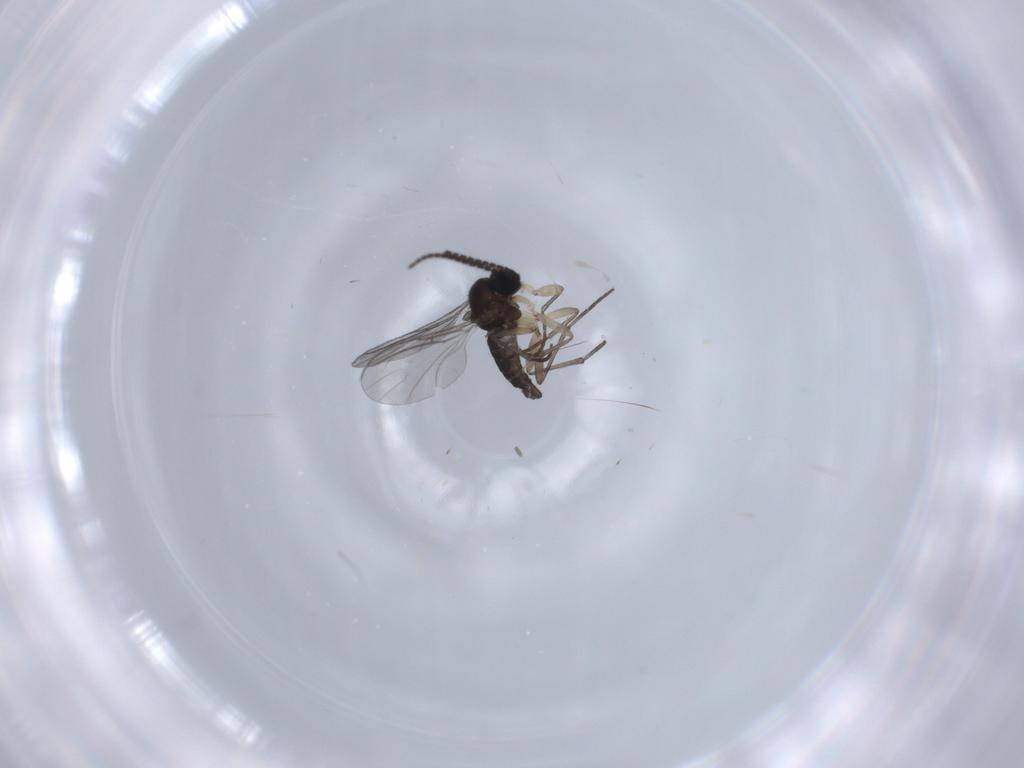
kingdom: Animalia
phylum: Arthropoda
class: Insecta
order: Diptera
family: Sciaridae
